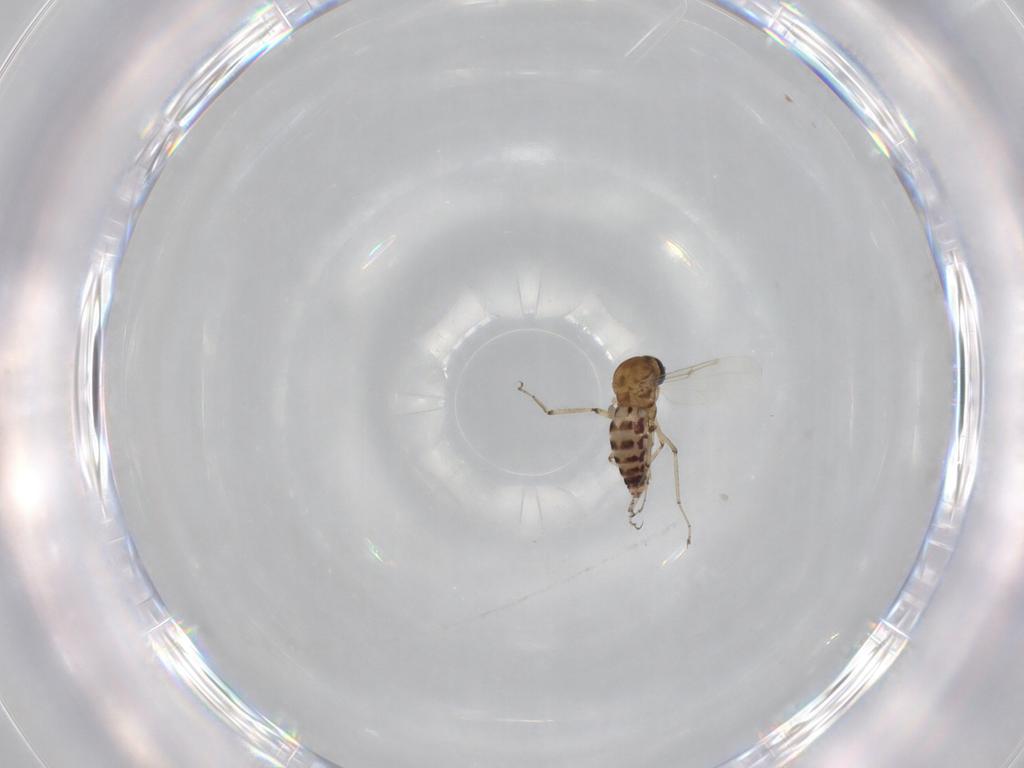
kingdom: Animalia
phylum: Arthropoda
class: Insecta
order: Diptera
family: Ceratopogonidae
